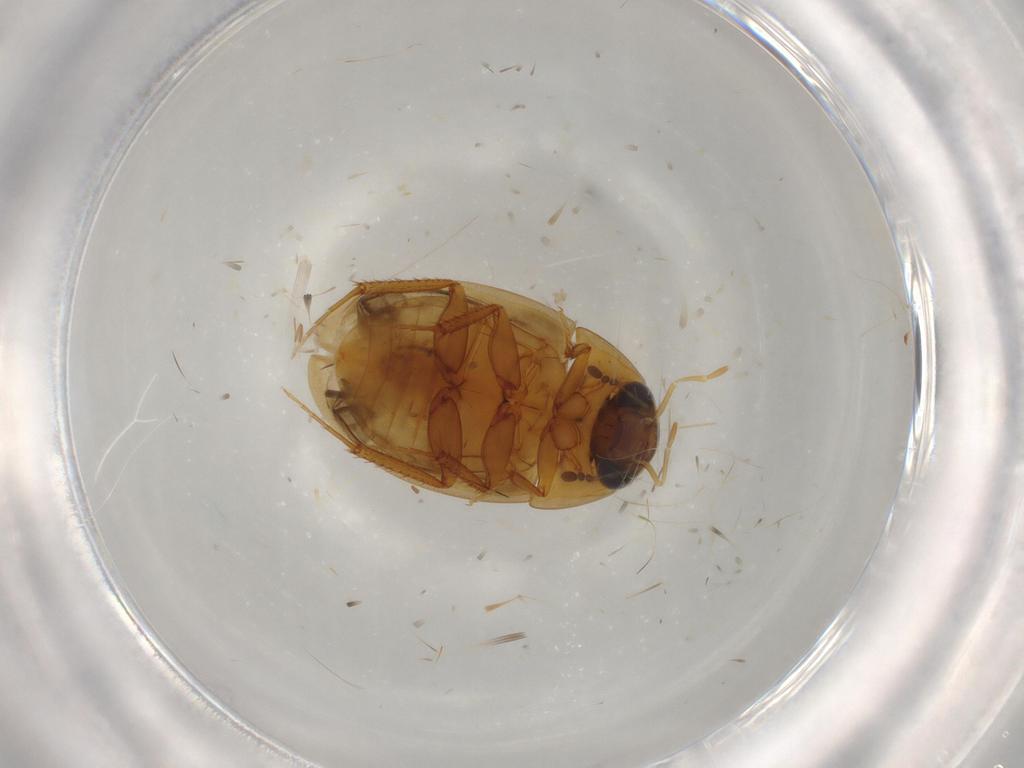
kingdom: Animalia
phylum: Arthropoda
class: Insecta
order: Coleoptera
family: Hydrophilidae
